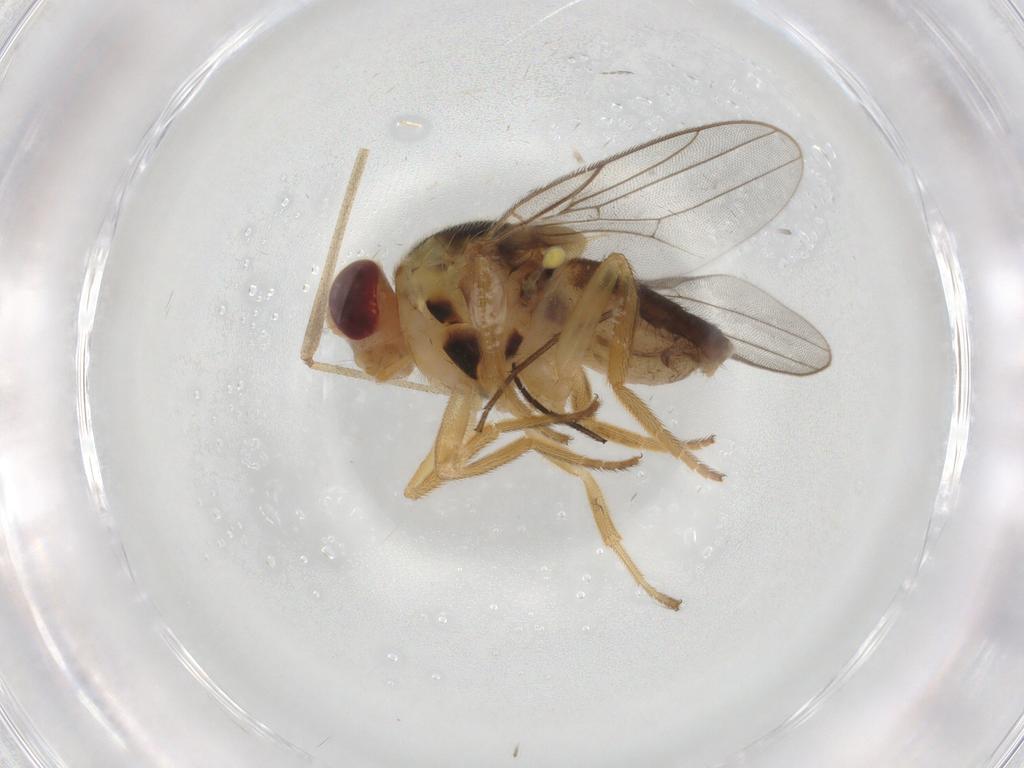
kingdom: Animalia
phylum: Arthropoda
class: Insecta
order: Diptera
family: Chloropidae
